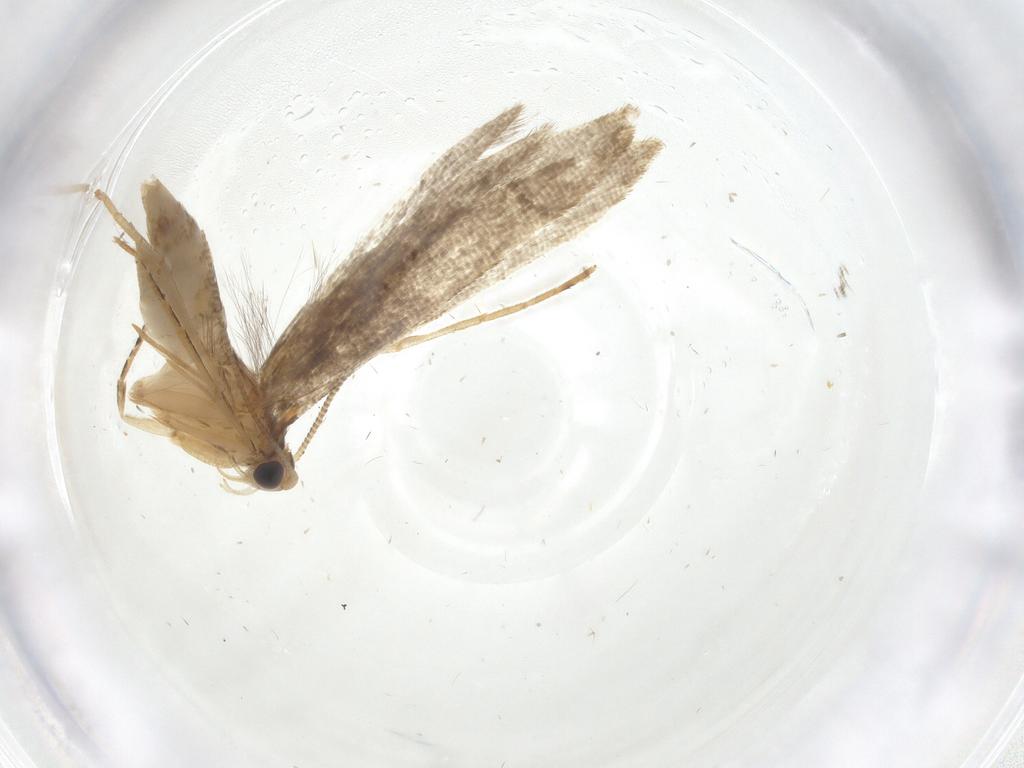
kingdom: Animalia
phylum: Arthropoda
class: Insecta
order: Lepidoptera
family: Tineidae
